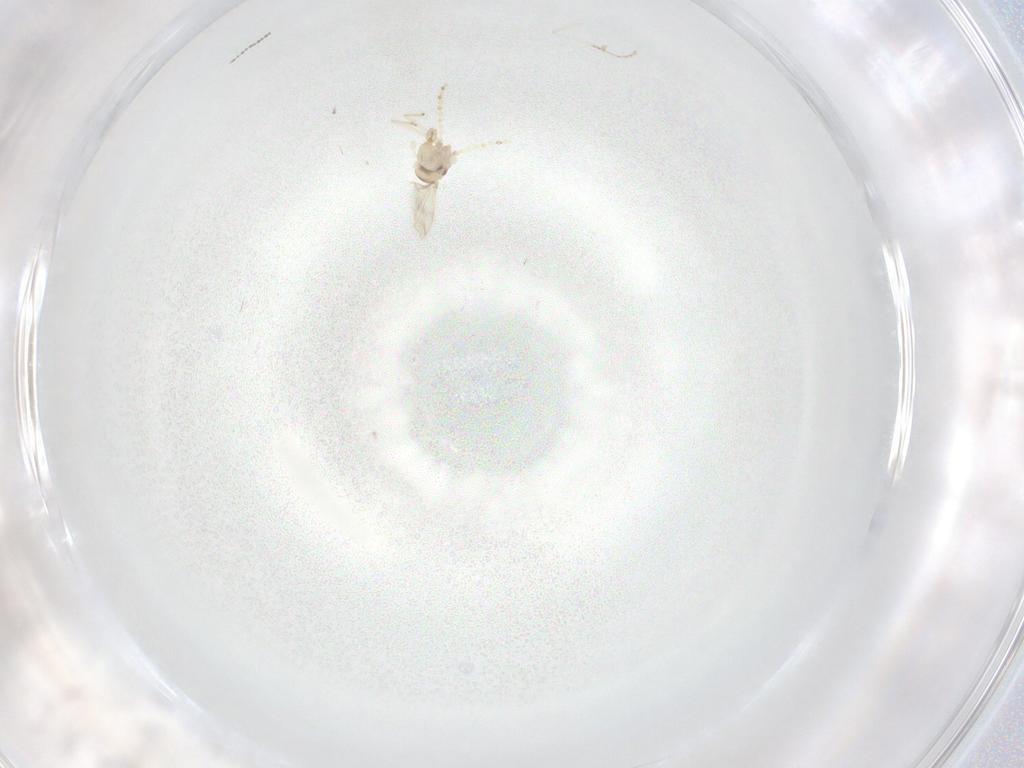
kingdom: Animalia
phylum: Arthropoda
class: Insecta
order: Diptera
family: Cecidomyiidae
